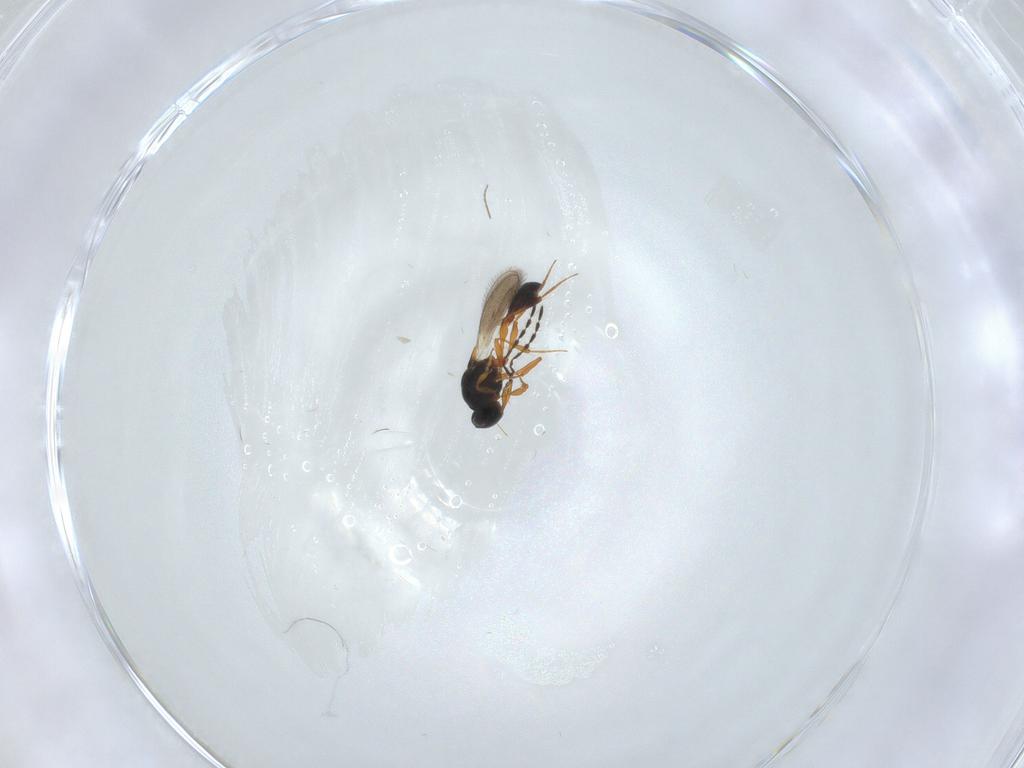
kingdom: Animalia
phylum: Arthropoda
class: Insecta
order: Hymenoptera
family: Platygastridae
